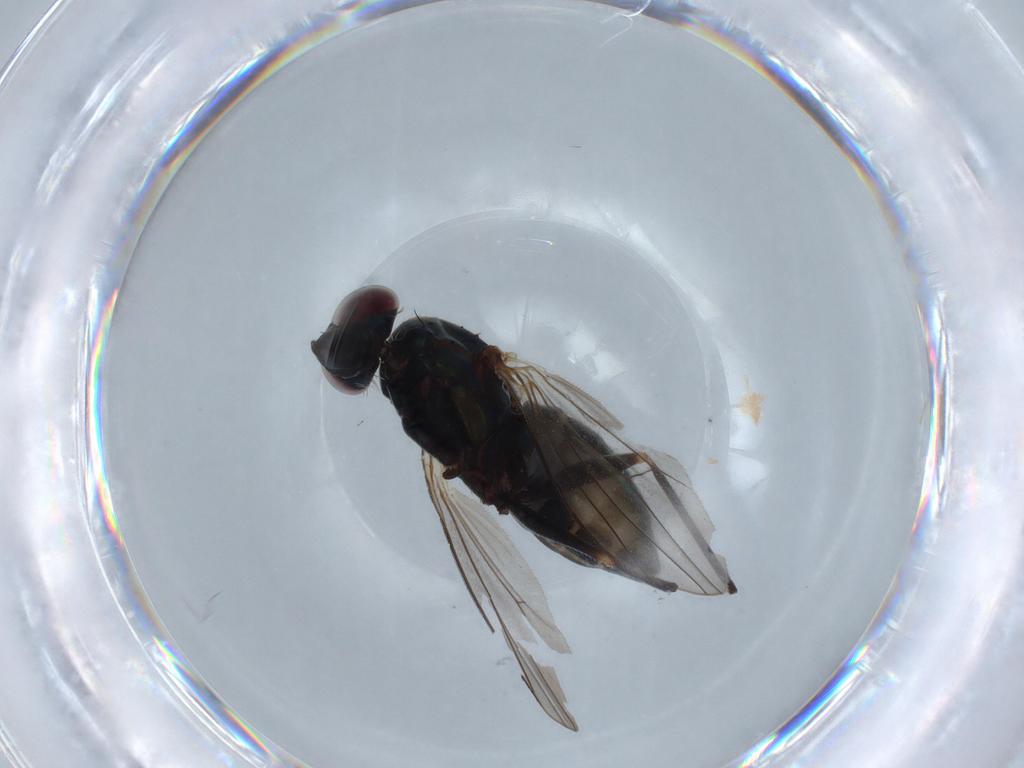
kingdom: Animalia
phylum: Arthropoda
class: Insecta
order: Diptera
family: Dolichopodidae
